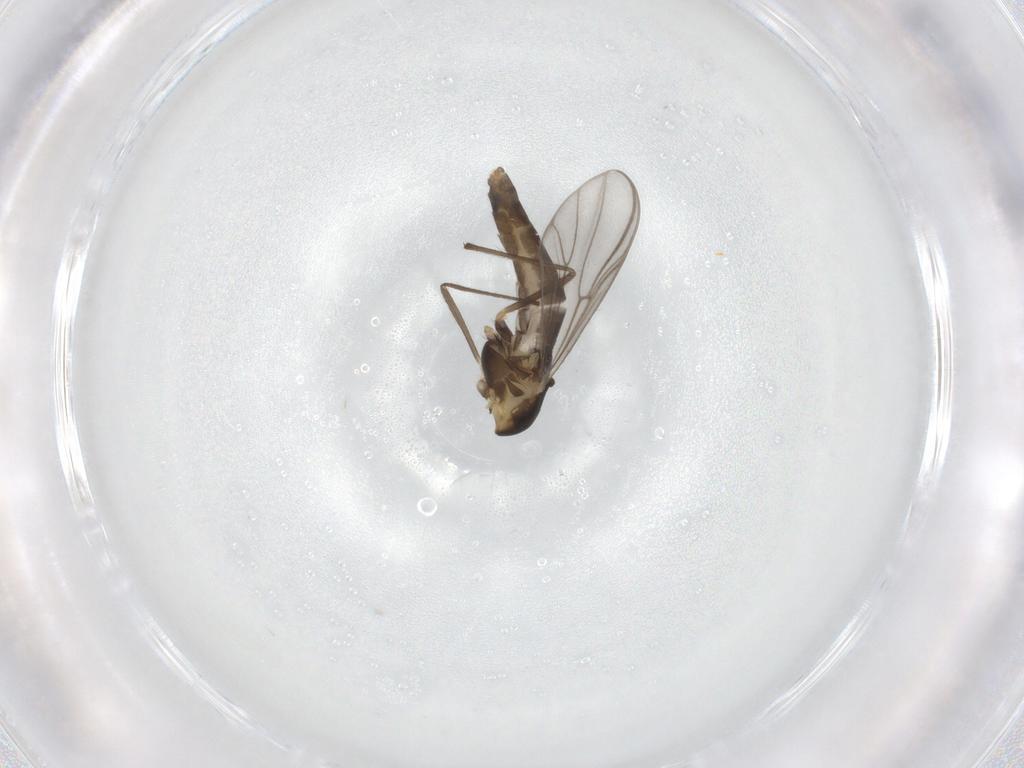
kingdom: Animalia
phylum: Arthropoda
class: Insecta
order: Diptera
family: Chironomidae
